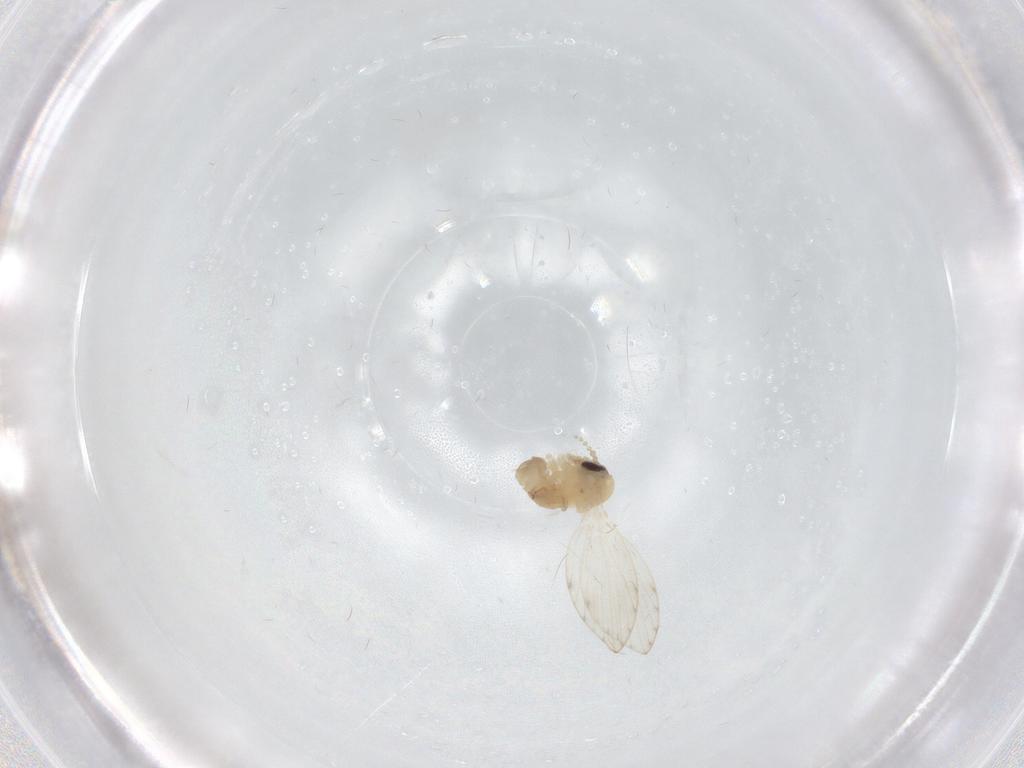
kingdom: Animalia
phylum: Arthropoda
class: Insecta
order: Diptera
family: Psychodidae
